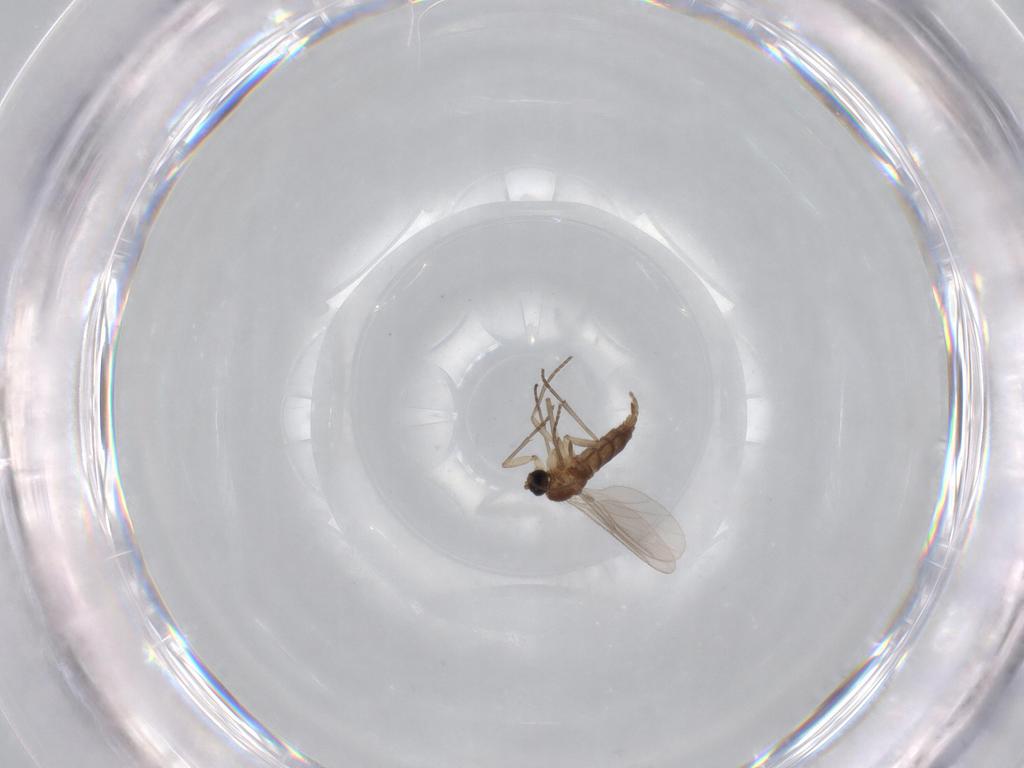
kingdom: Animalia
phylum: Arthropoda
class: Insecta
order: Diptera
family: Sciaridae
